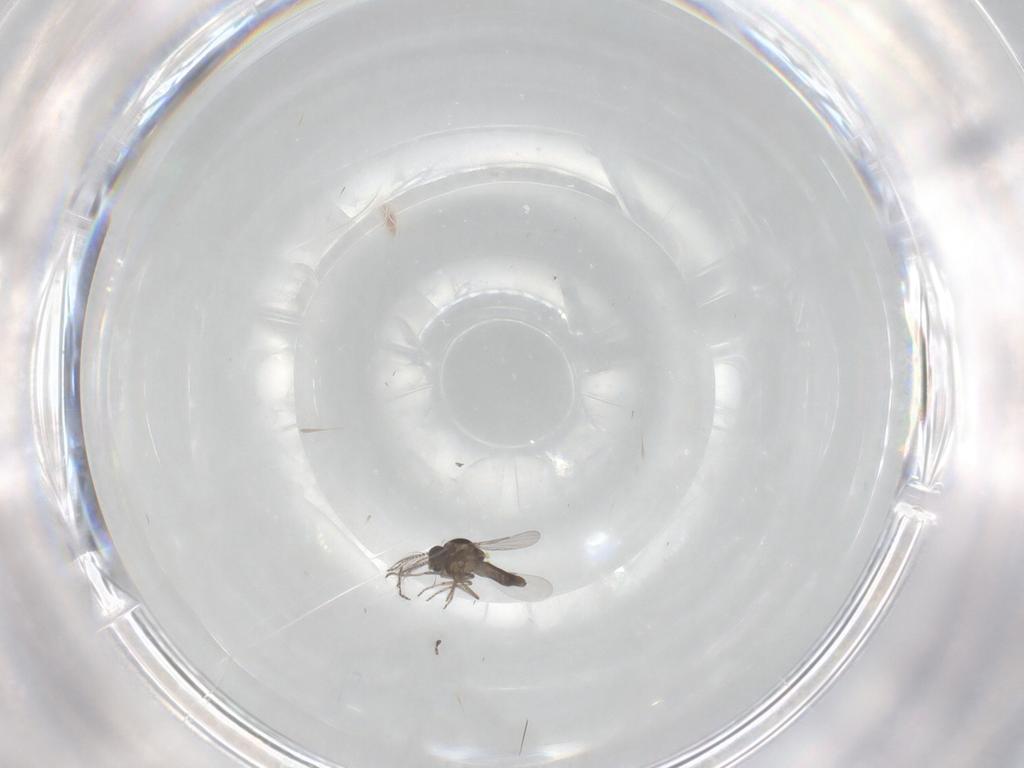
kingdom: Animalia
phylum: Arthropoda
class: Insecta
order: Diptera
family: Ceratopogonidae
